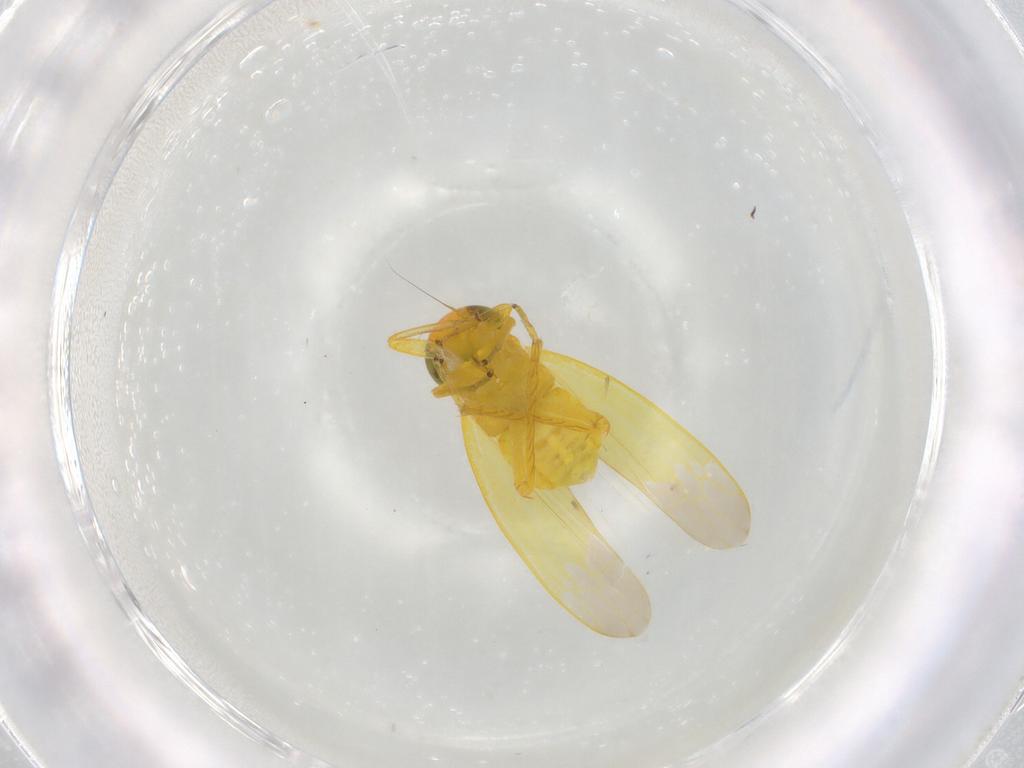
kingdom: Animalia
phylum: Arthropoda
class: Insecta
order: Hemiptera
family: Cicadellidae
